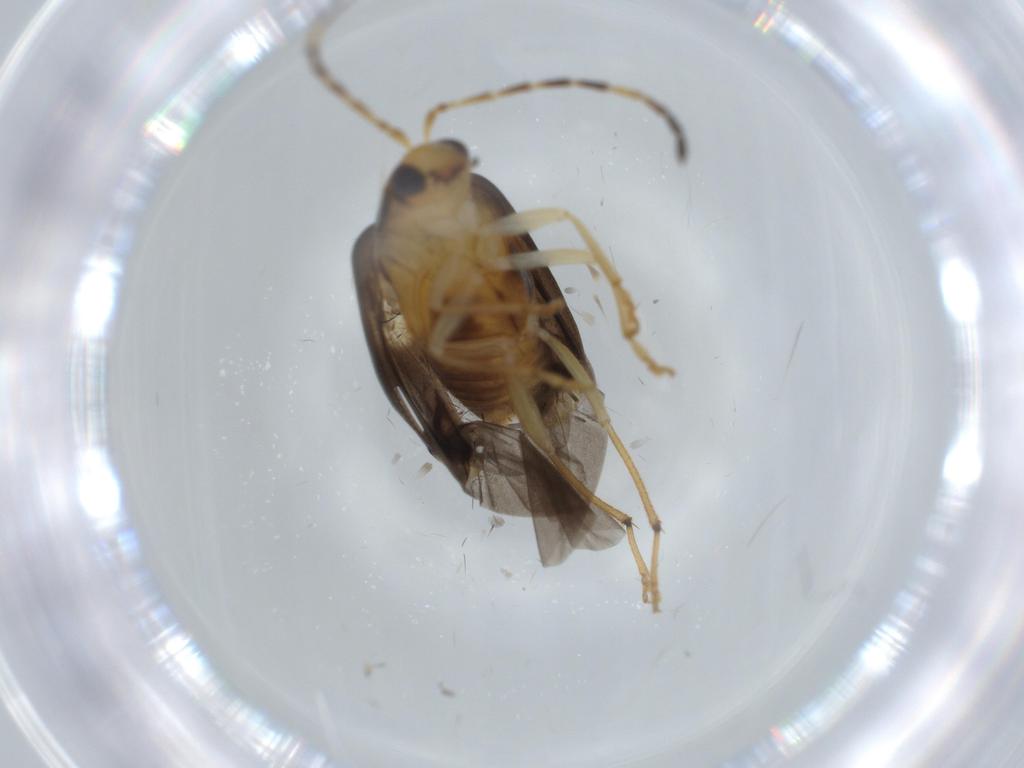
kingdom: Animalia
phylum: Arthropoda
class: Insecta
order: Coleoptera
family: Chrysomelidae
